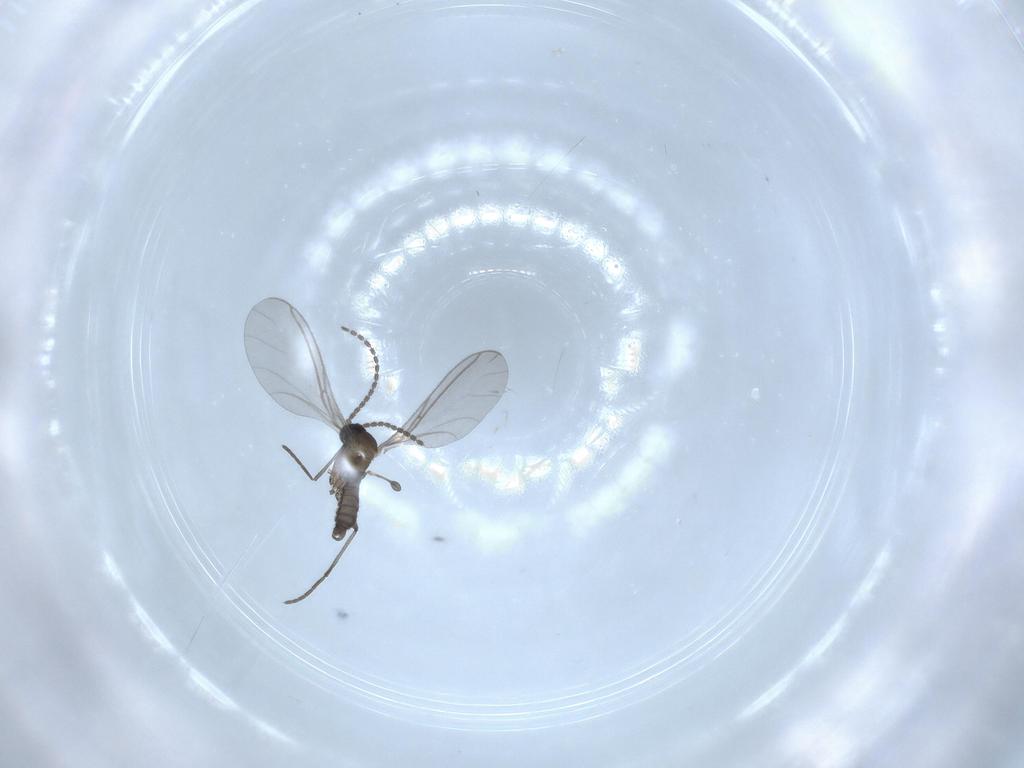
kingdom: Animalia
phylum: Arthropoda
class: Insecta
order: Diptera
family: Sciaridae
